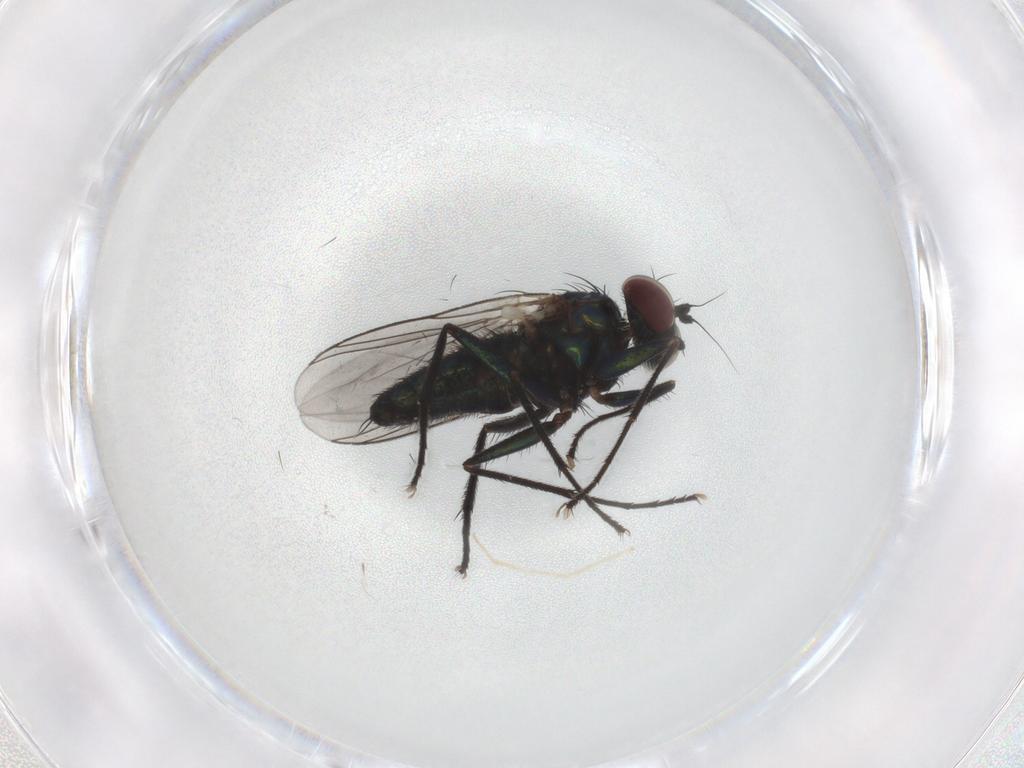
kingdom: Animalia
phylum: Arthropoda
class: Insecta
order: Diptera
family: Dolichopodidae
